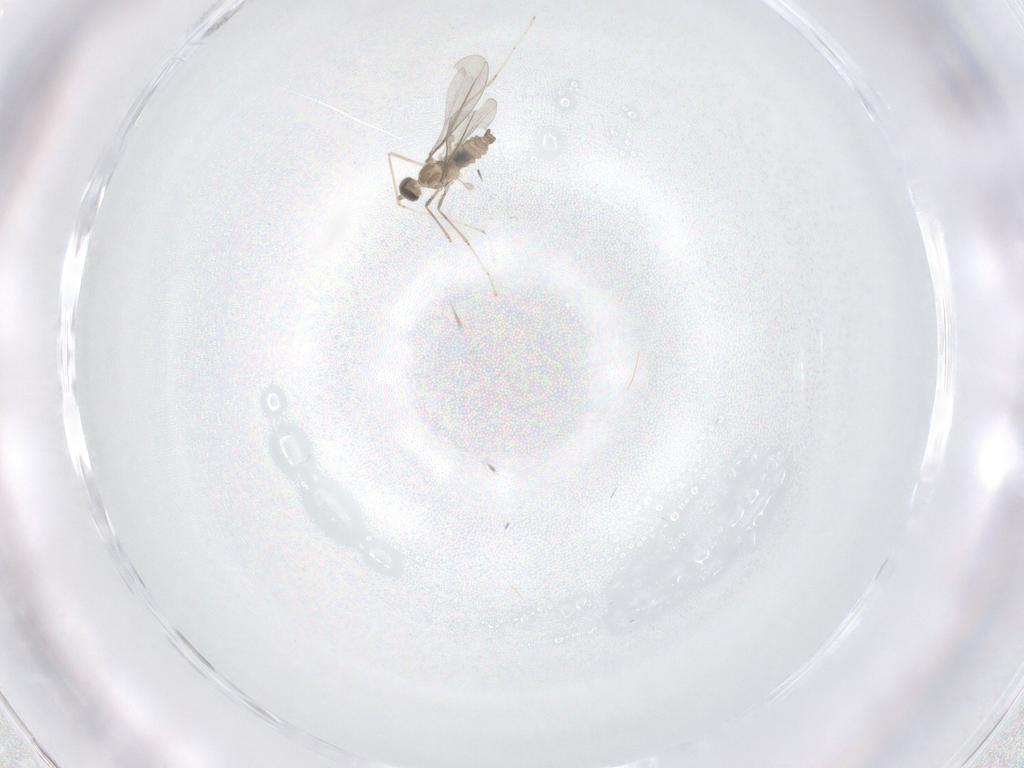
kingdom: Animalia
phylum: Arthropoda
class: Insecta
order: Diptera
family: Cecidomyiidae
